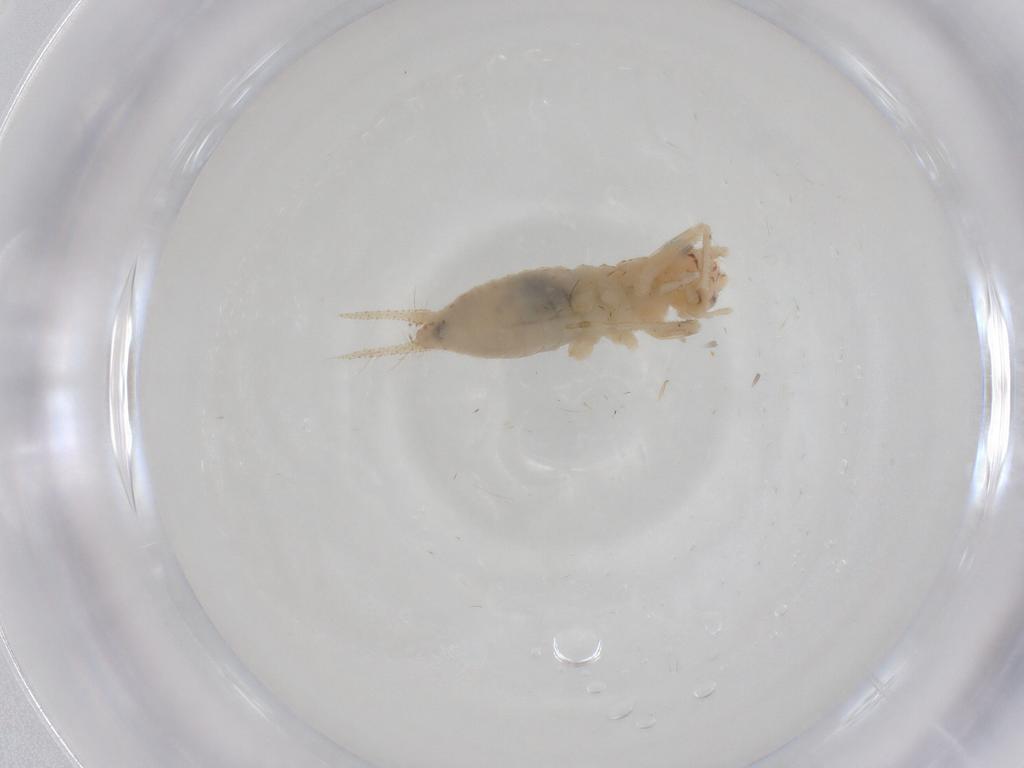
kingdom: Animalia
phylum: Arthropoda
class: Insecta
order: Orthoptera
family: Trigonidiidae
